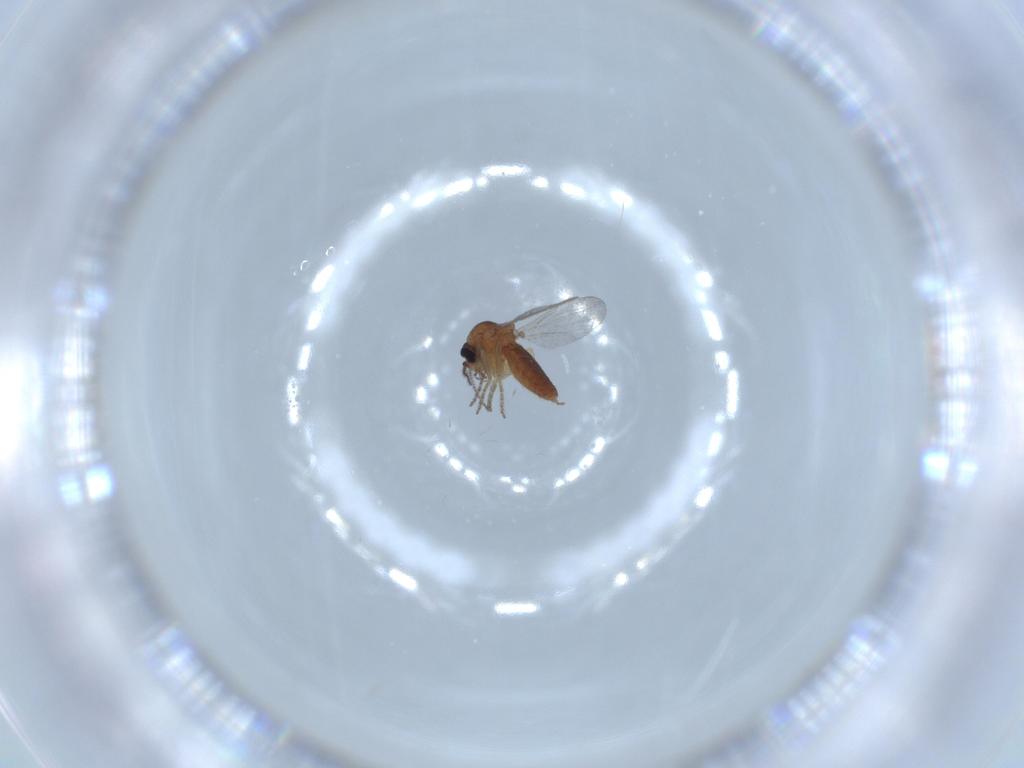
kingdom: Animalia
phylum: Arthropoda
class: Insecta
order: Diptera
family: Ceratopogonidae
